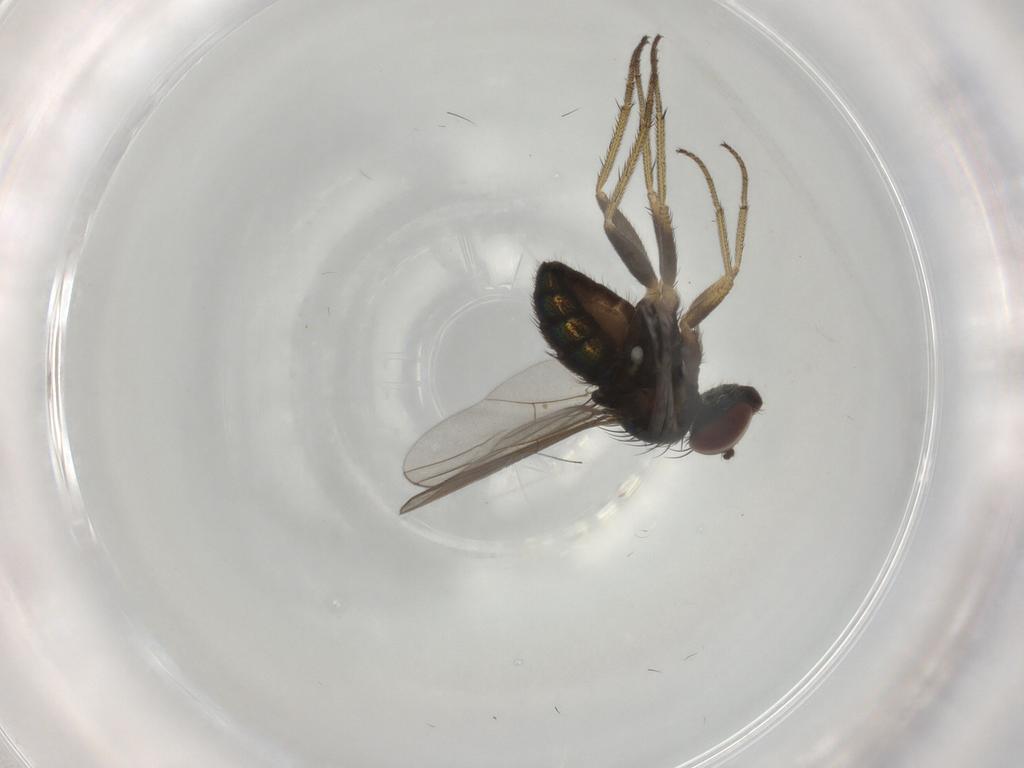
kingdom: Animalia
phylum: Arthropoda
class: Insecta
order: Diptera
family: Dolichopodidae
